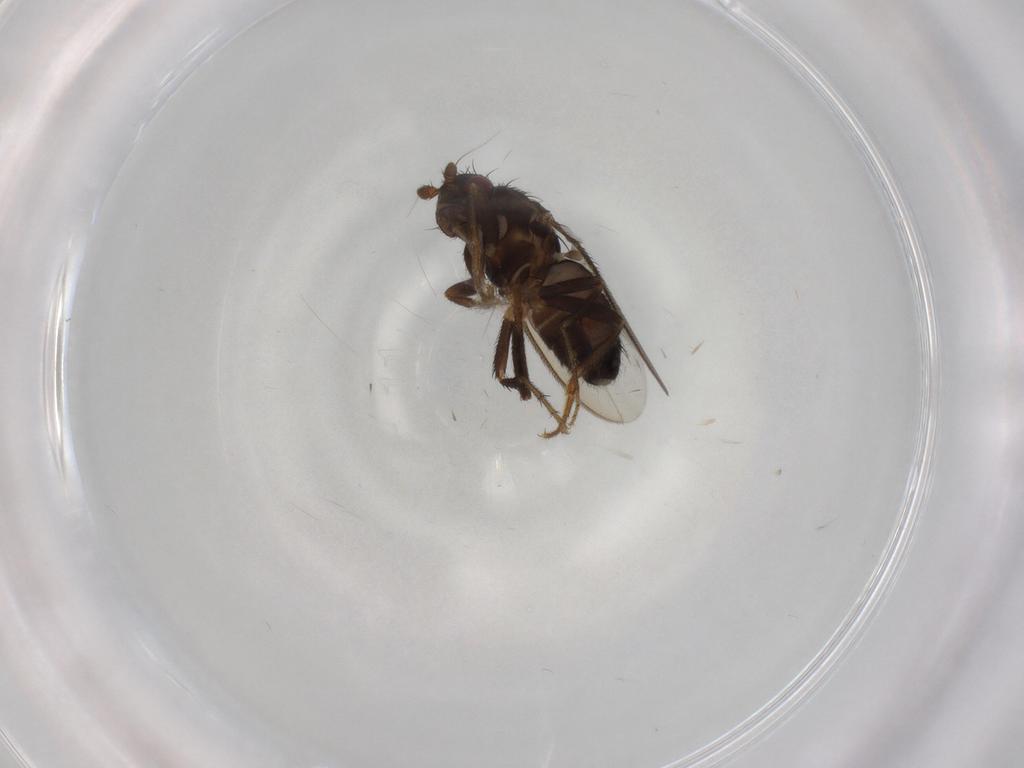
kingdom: Animalia
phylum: Arthropoda
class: Insecta
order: Diptera
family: Sphaeroceridae
